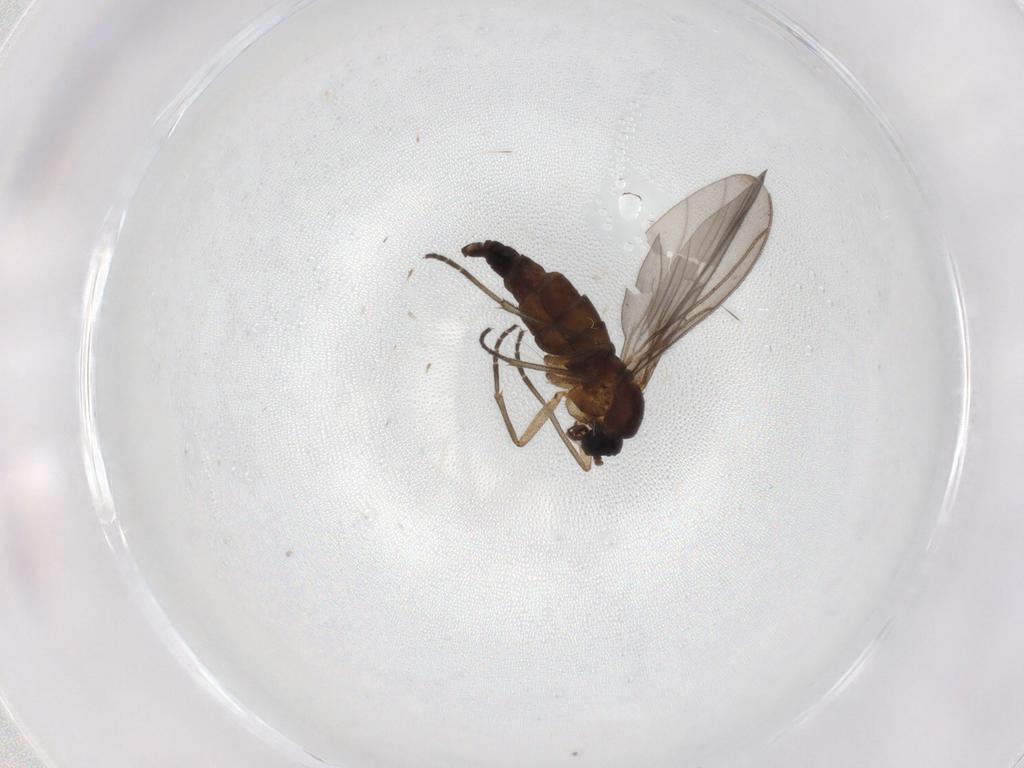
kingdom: Animalia
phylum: Arthropoda
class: Insecta
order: Diptera
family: Sciaridae
